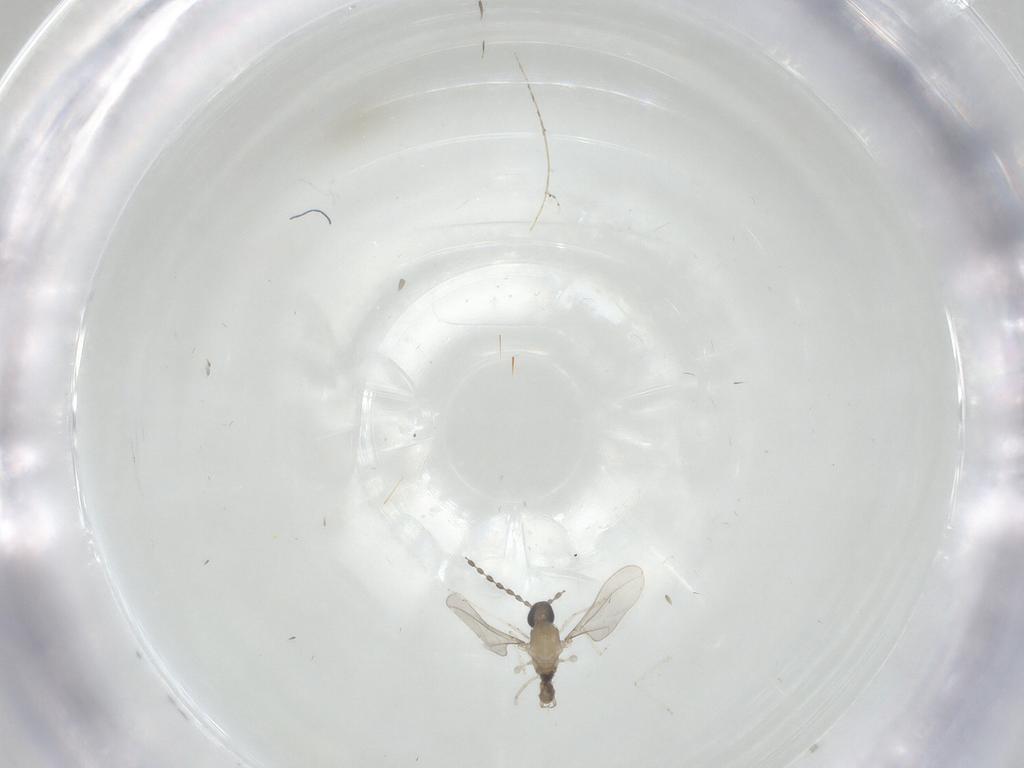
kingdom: Animalia
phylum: Arthropoda
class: Insecta
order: Diptera
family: Cecidomyiidae
